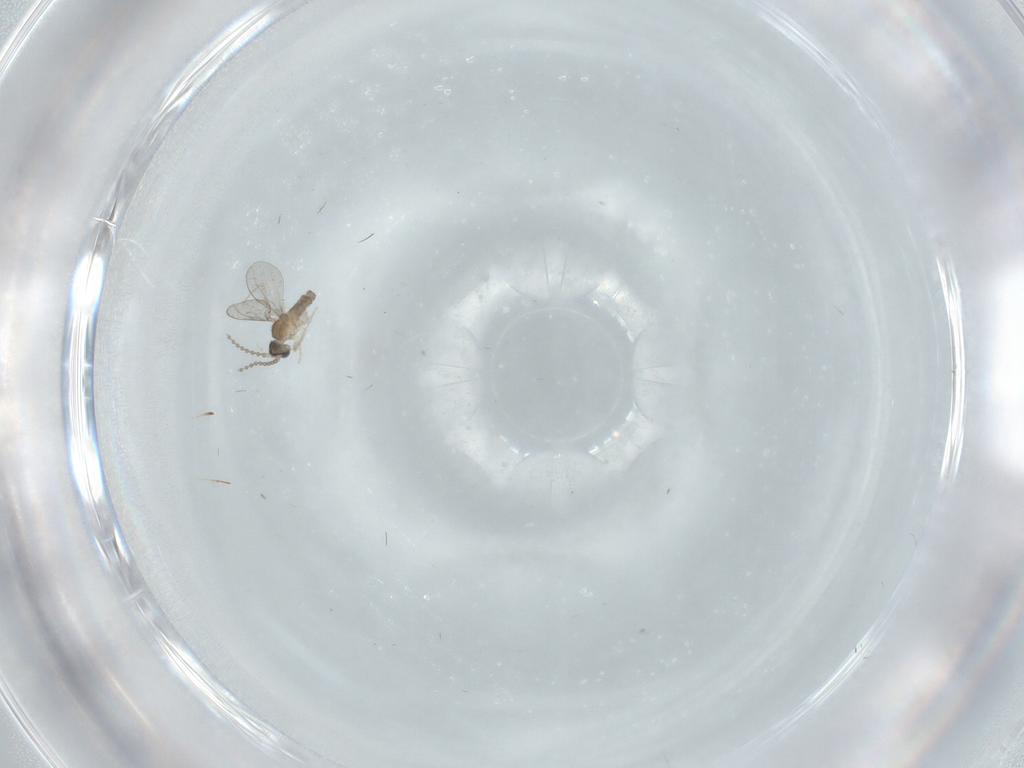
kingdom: Animalia
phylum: Arthropoda
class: Insecta
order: Diptera
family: Cecidomyiidae
